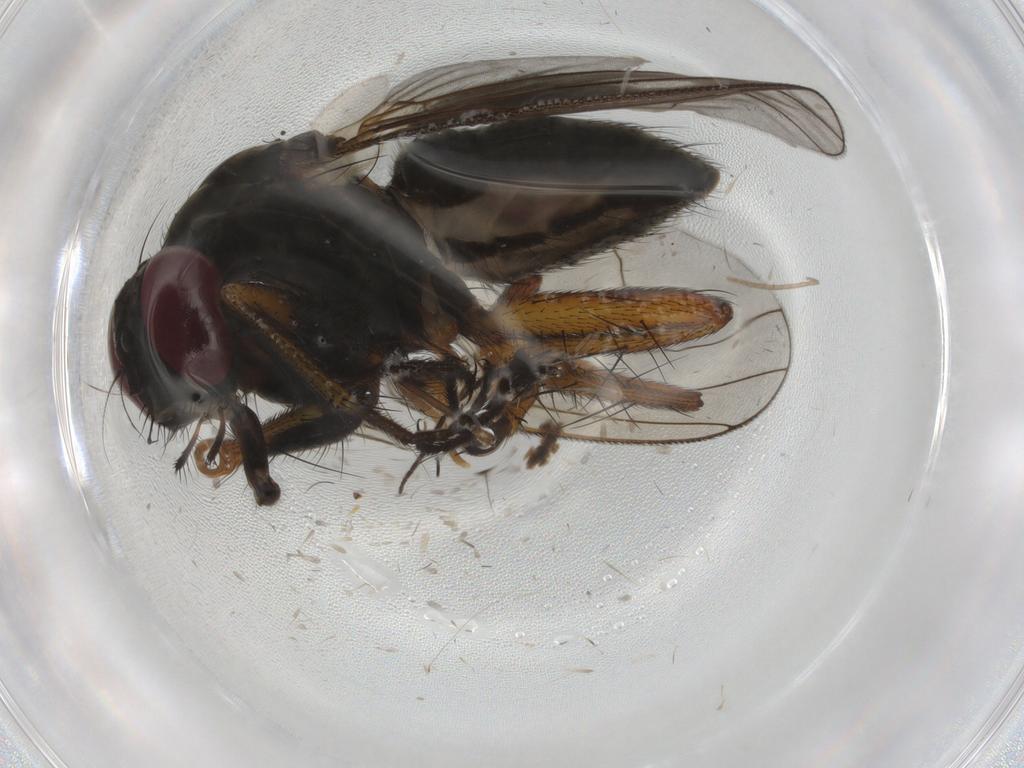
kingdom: Animalia
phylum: Arthropoda
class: Insecta
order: Diptera
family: Muscidae
